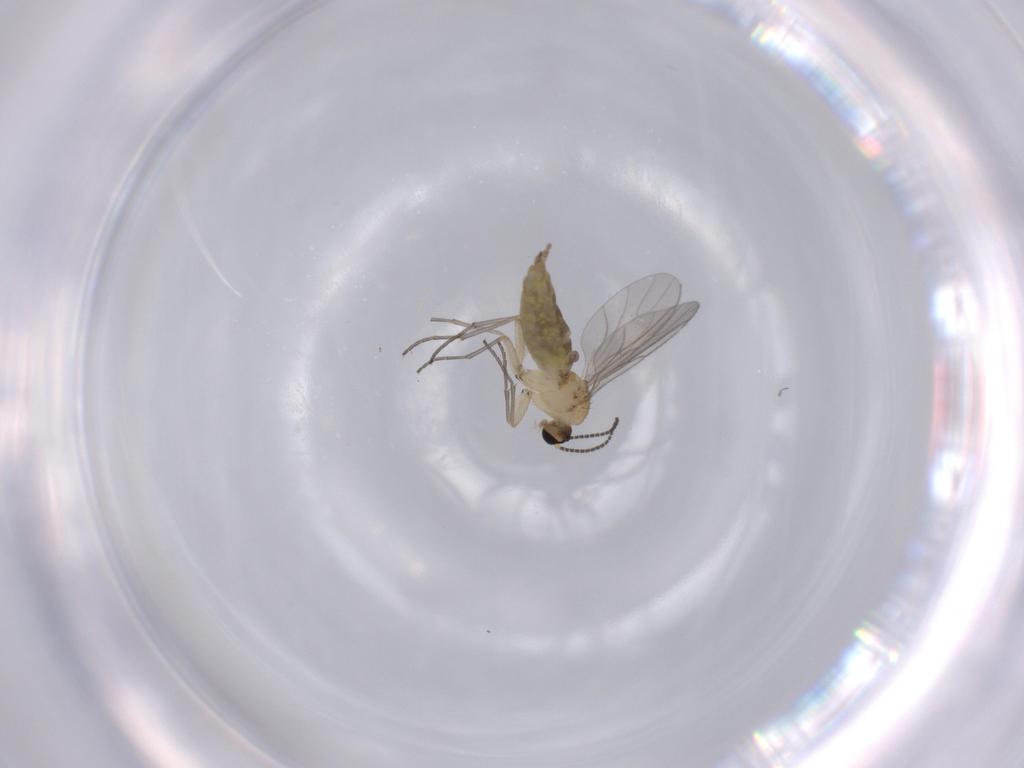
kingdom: Animalia
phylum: Arthropoda
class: Insecta
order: Diptera
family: Sciaridae
